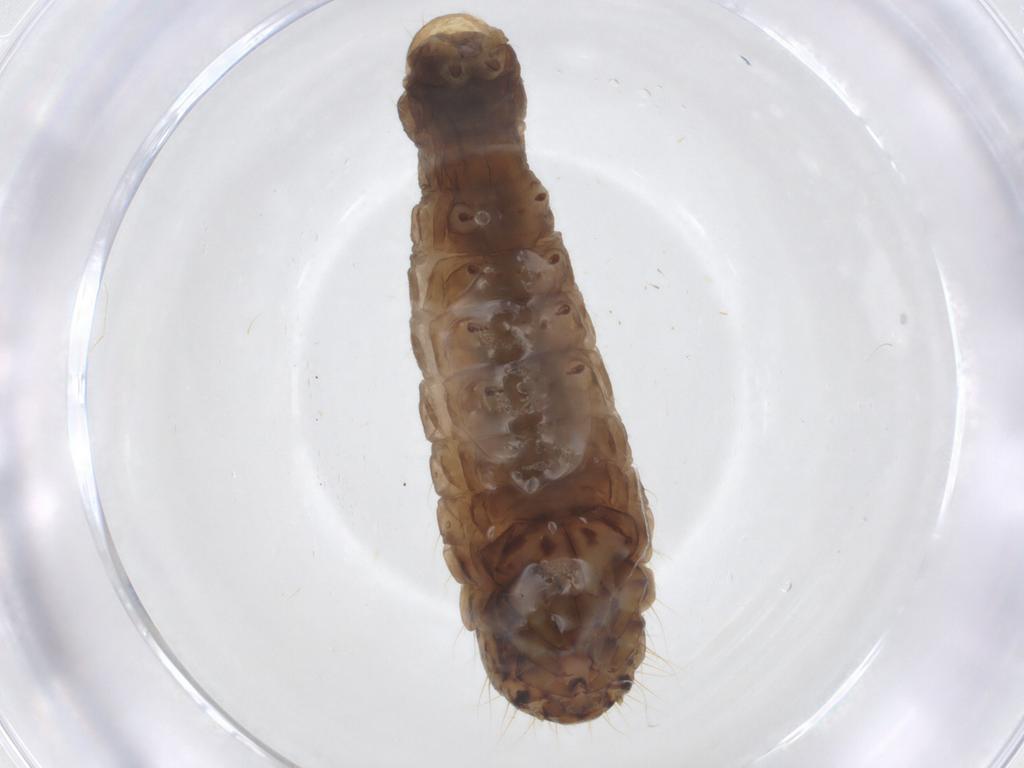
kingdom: Animalia
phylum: Arthropoda
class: Insecta
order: Lepidoptera
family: Psychidae
